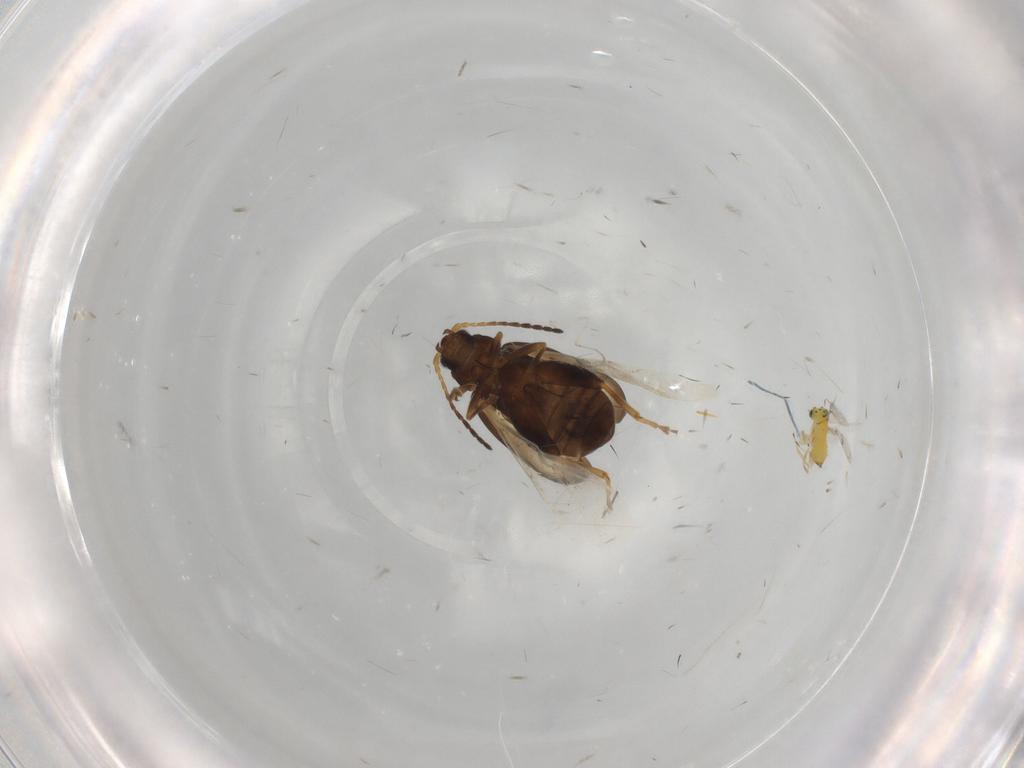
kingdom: Animalia
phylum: Arthropoda
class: Insecta
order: Coleoptera
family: Chrysomelidae
